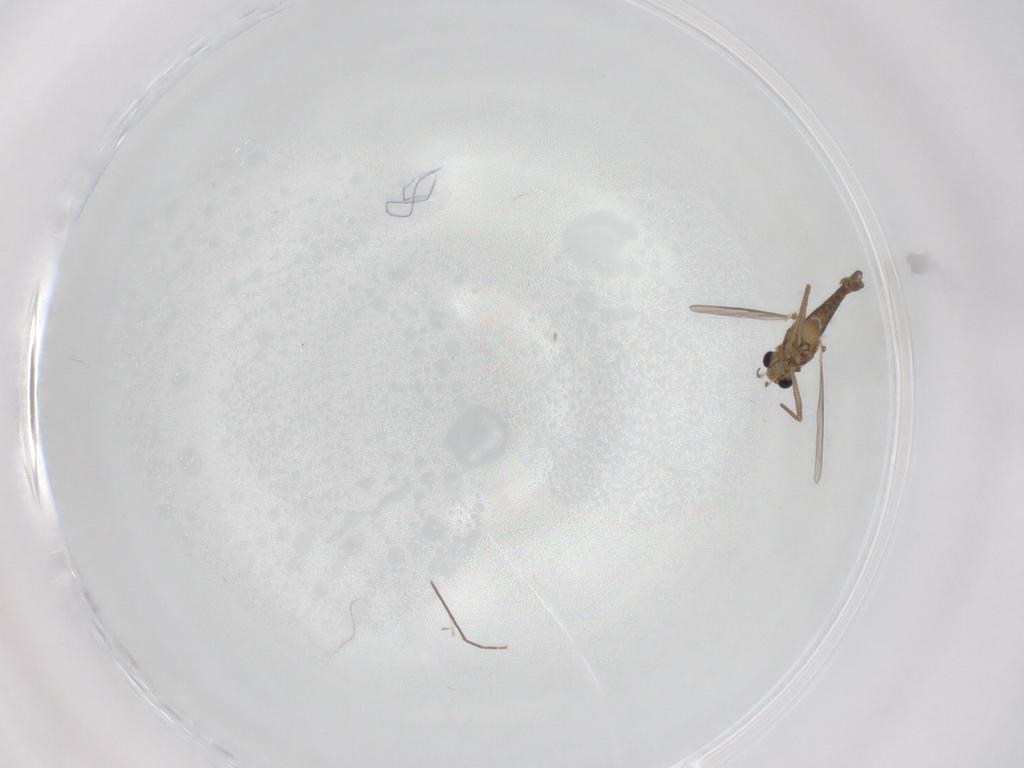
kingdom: Animalia
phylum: Arthropoda
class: Insecta
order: Diptera
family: Chironomidae
